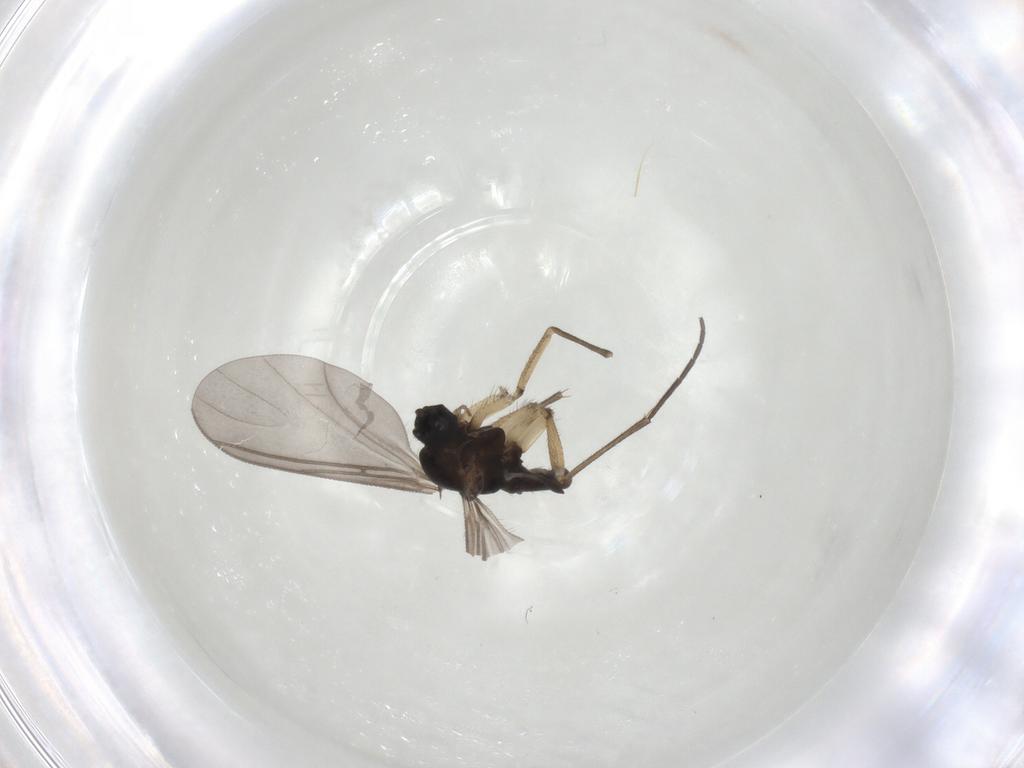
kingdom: Animalia
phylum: Arthropoda
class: Insecta
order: Diptera
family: Sciaridae
